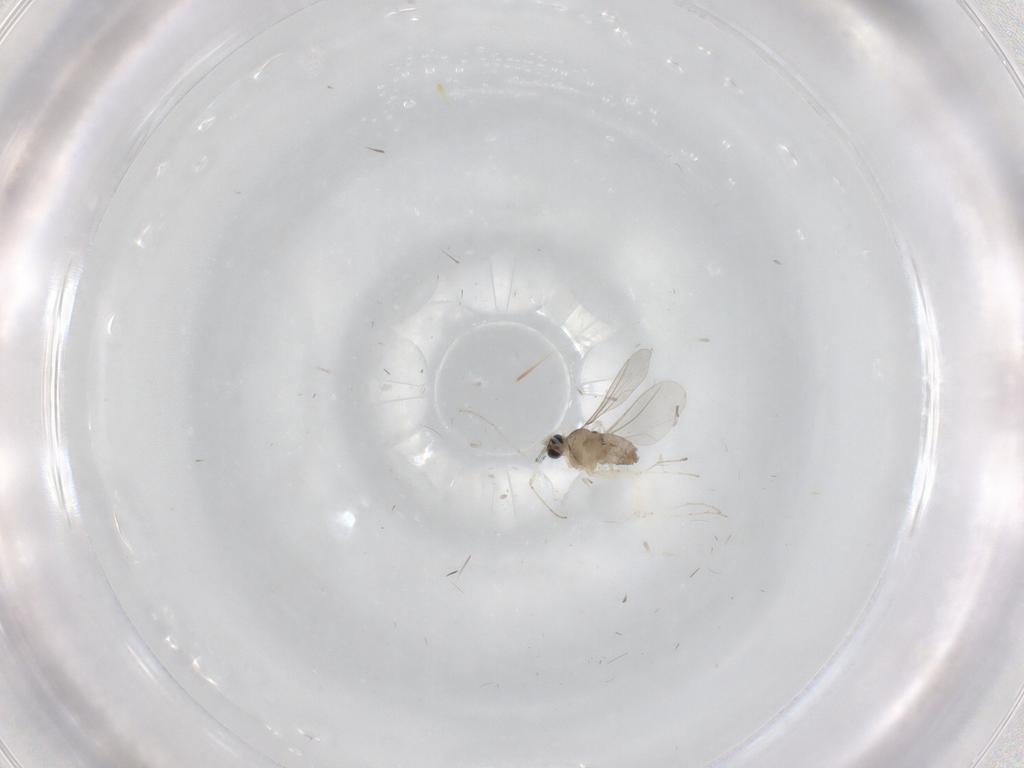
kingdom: Animalia
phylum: Arthropoda
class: Insecta
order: Diptera
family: Cecidomyiidae
